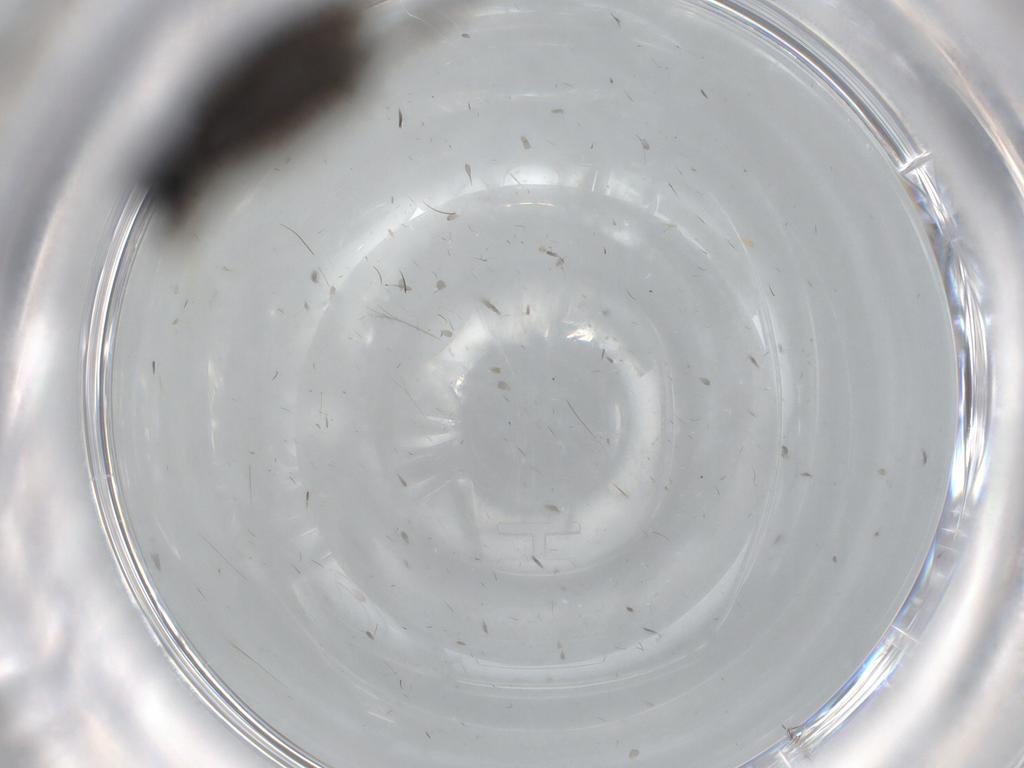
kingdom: Animalia
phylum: Arthropoda
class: Insecta
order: Diptera
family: Phoridae
